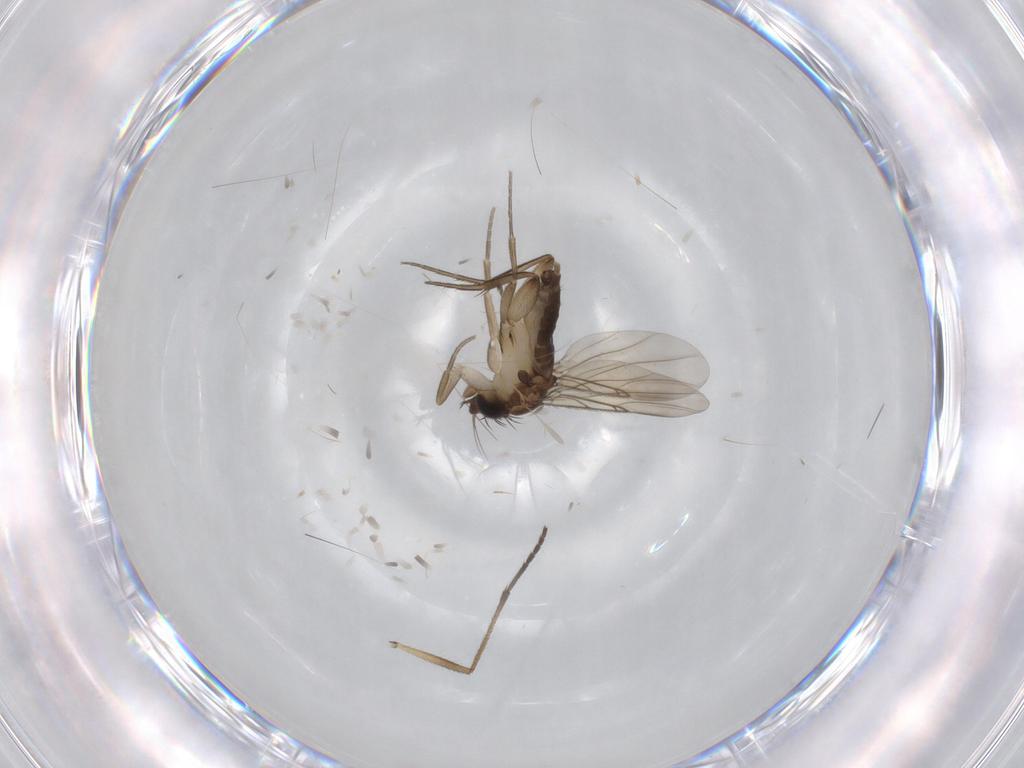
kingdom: Animalia
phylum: Arthropoda
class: Insecta
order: Diptera
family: Phoridae
